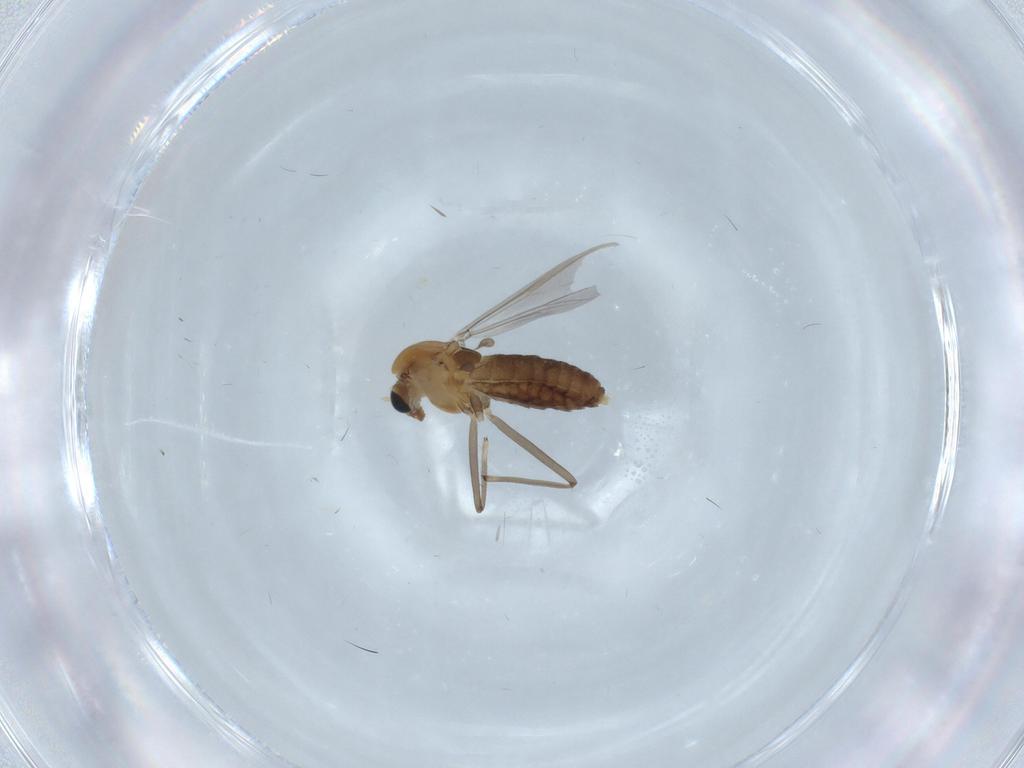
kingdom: Animalia
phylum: Arthropoda
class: Insecta
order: Diptera
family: Chironomidae
